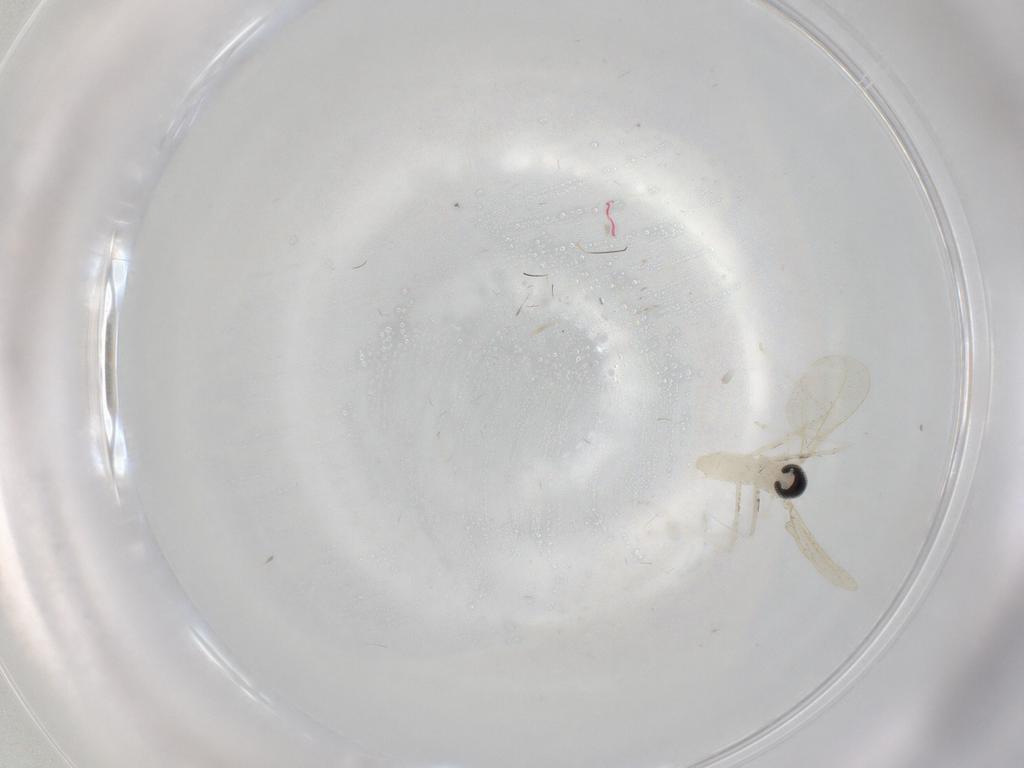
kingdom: Animalia
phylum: Arthropoda
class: Insecta
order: Diptera
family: Cecidomyiidae
